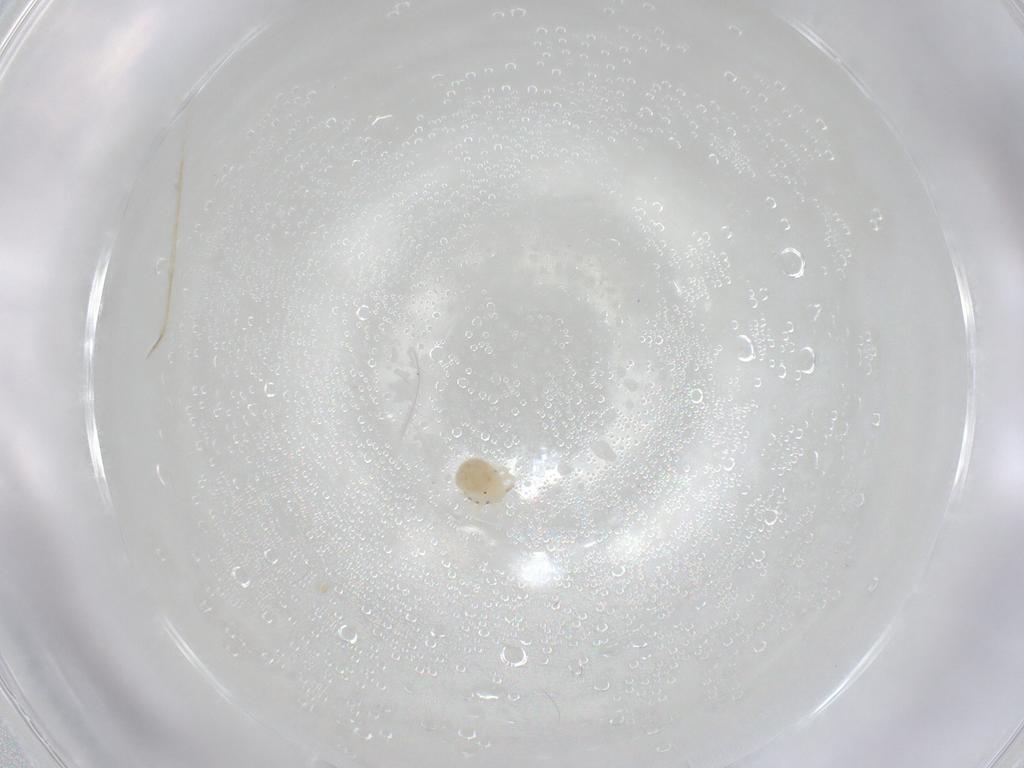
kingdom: Animalia
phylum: Arthropoda
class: Arachnida
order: Trombidiformes
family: Anystidae
